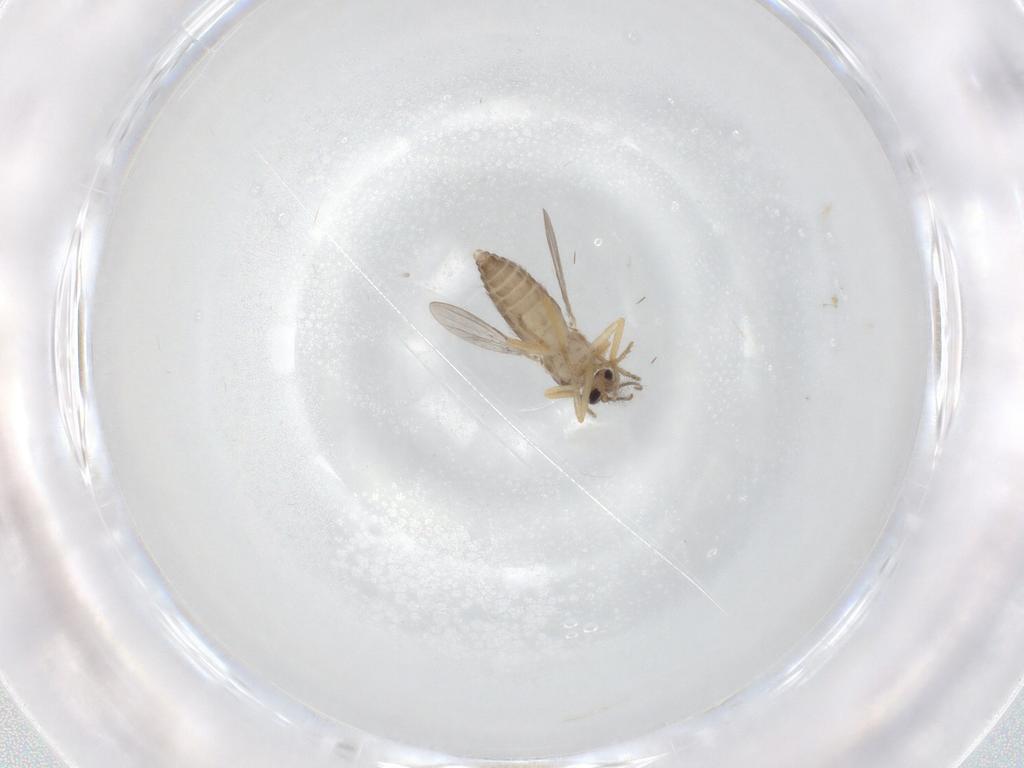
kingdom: Animalia
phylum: Arthropoda
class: Insecta
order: Diptera
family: Ceratopogonidae
